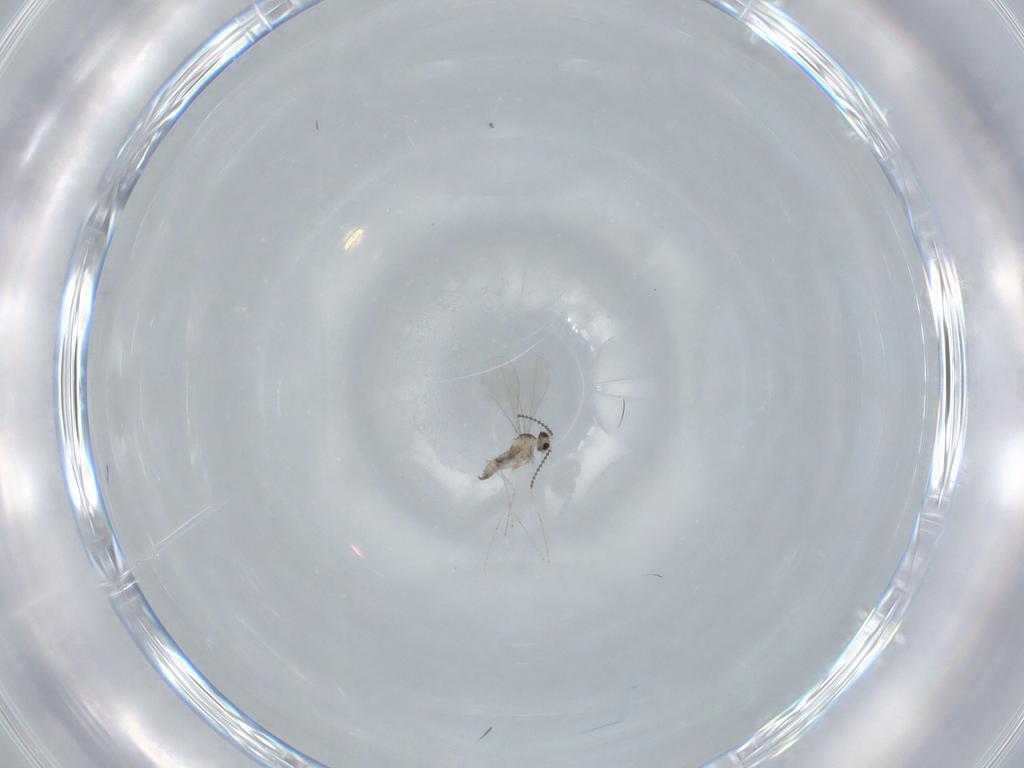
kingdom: Animalia
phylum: Arthropoda
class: Insecta
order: Diptera
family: Cecidomyiidae
